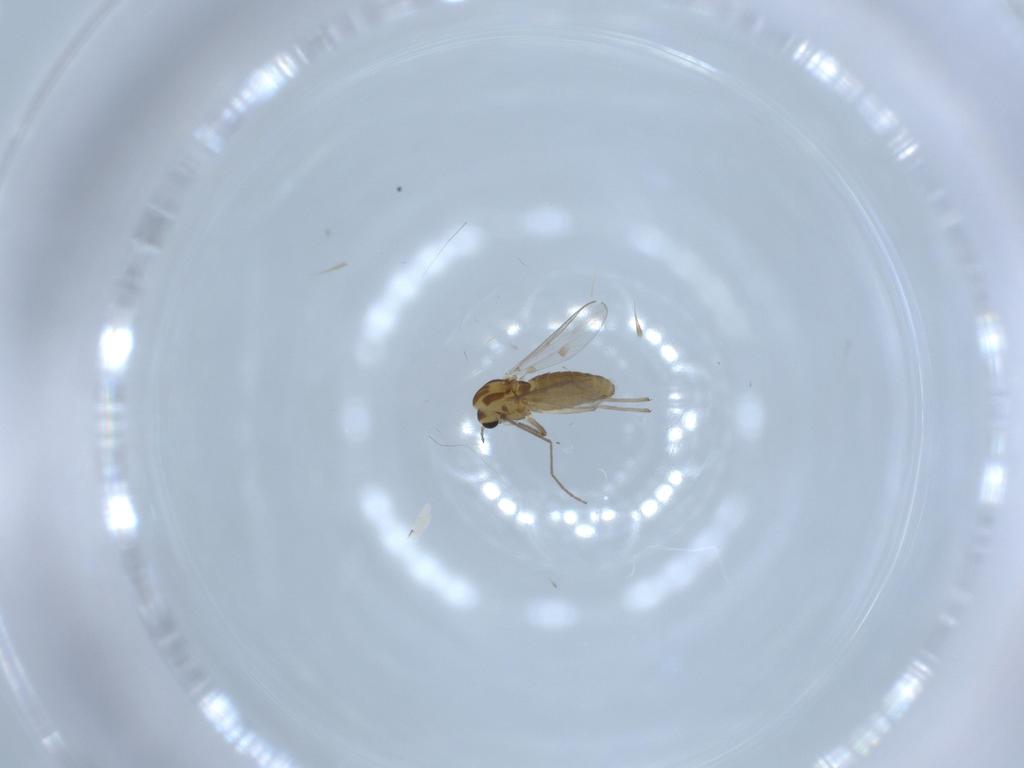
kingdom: Animalia
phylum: Arthropoda
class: Insecta
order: Diptera
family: Chironomidae
